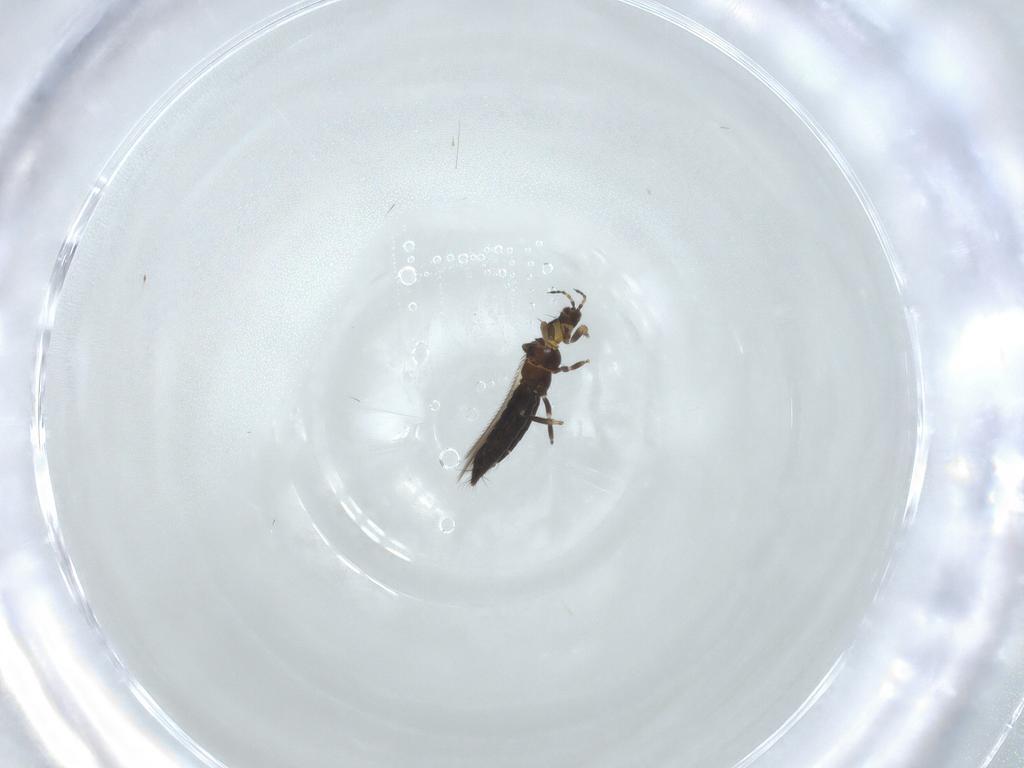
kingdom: Animalia
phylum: Arthropoda
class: Insecta
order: Thysanoptera
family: Thripidae
